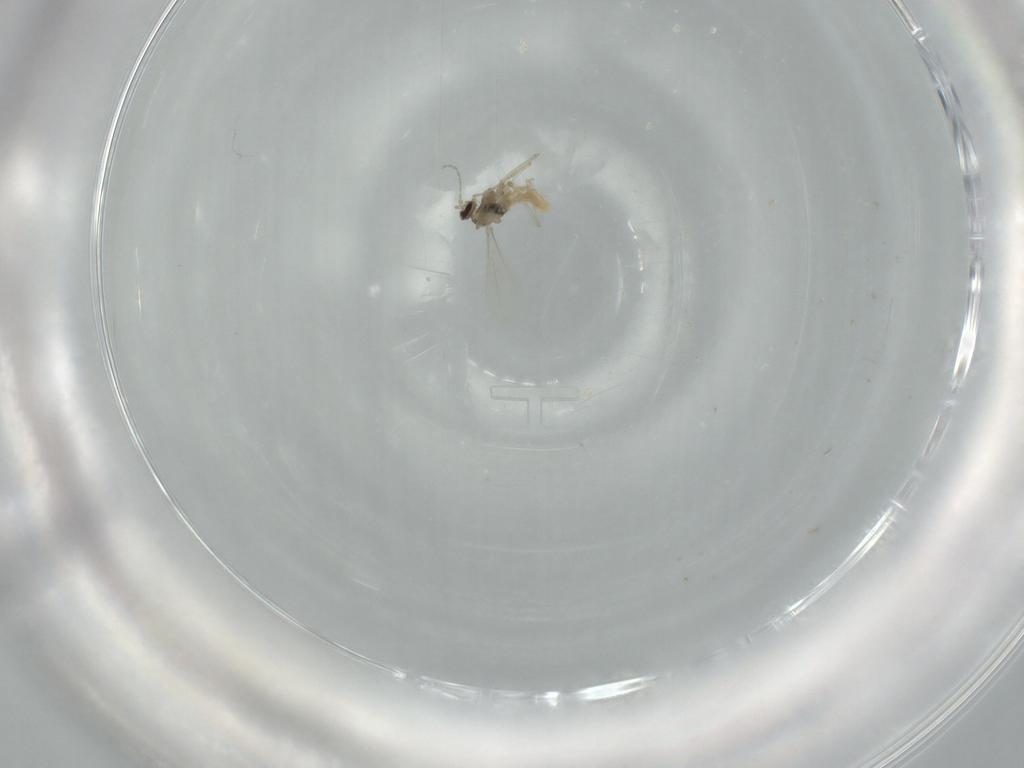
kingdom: Animalia
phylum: Arthropoda
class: Insecta
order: Diptera
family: Cecidomyiidae
